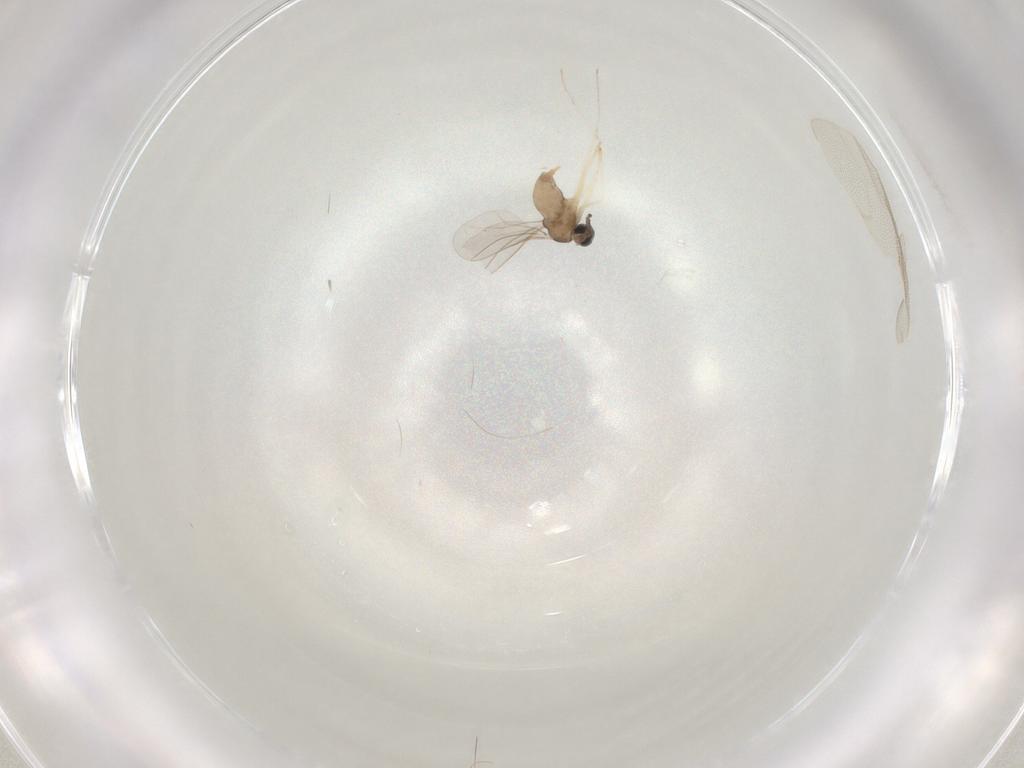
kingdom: Animalia
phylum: Arthropoda
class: Insecta
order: Diptera
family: Cecidomyiidae
